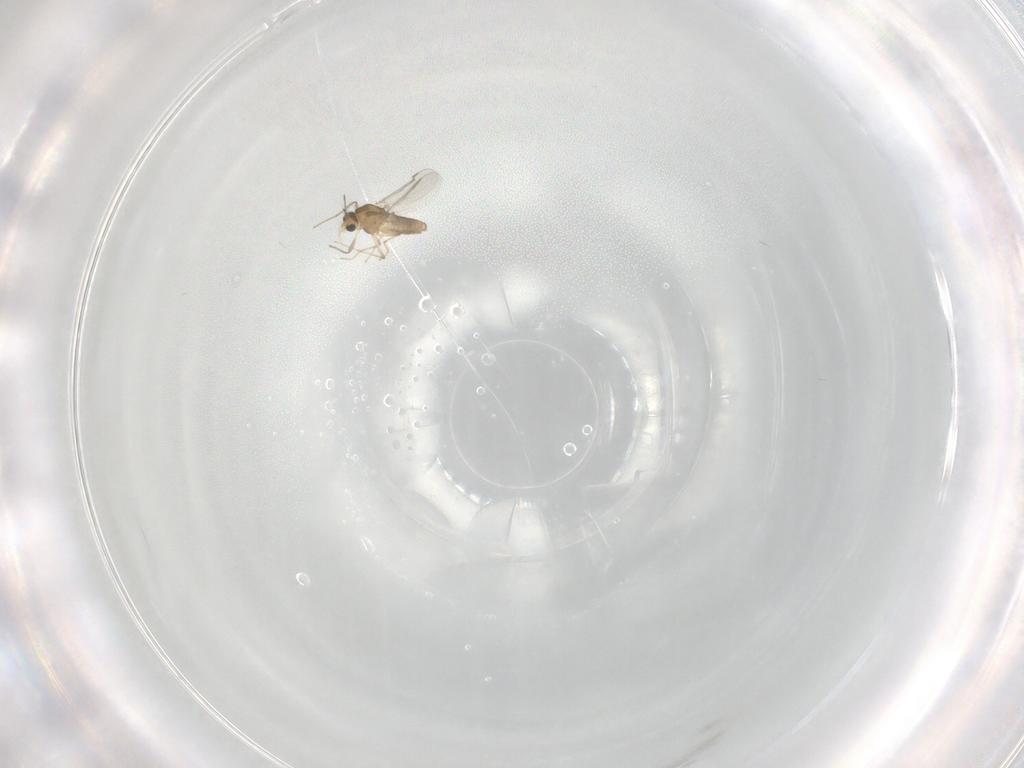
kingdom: Animalia
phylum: Arthropoda
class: Insecta
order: Diptera
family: Chironomidae
